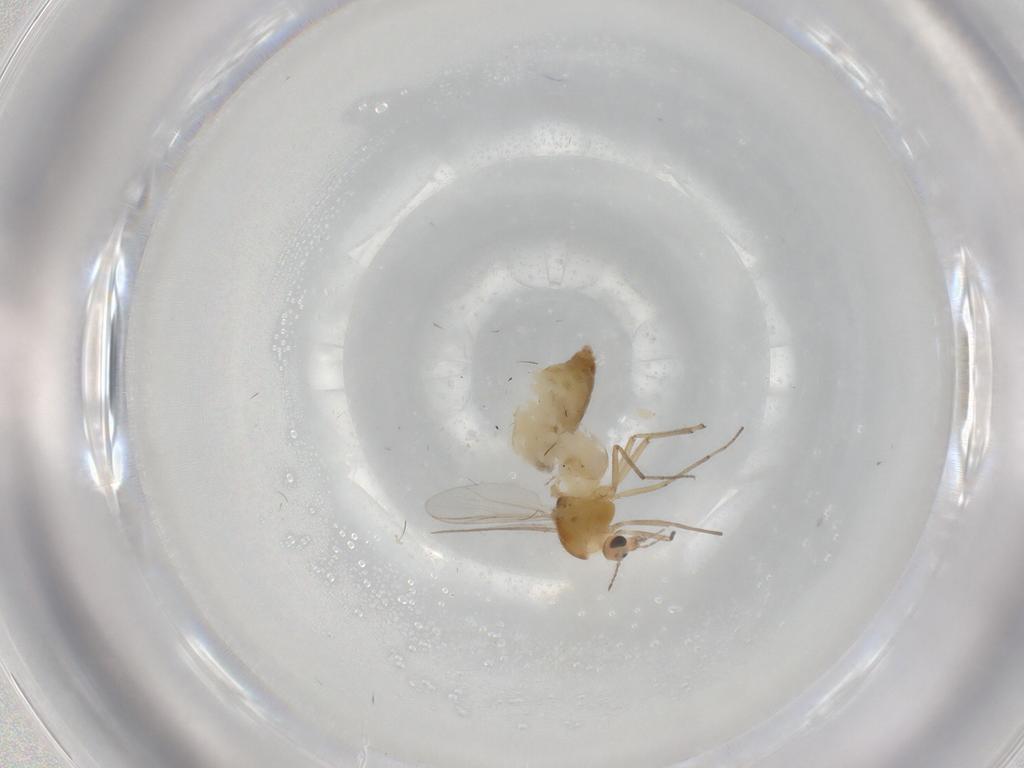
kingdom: Animalia
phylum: Arthropoda
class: Insecta
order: Diptera
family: Chironomidae
